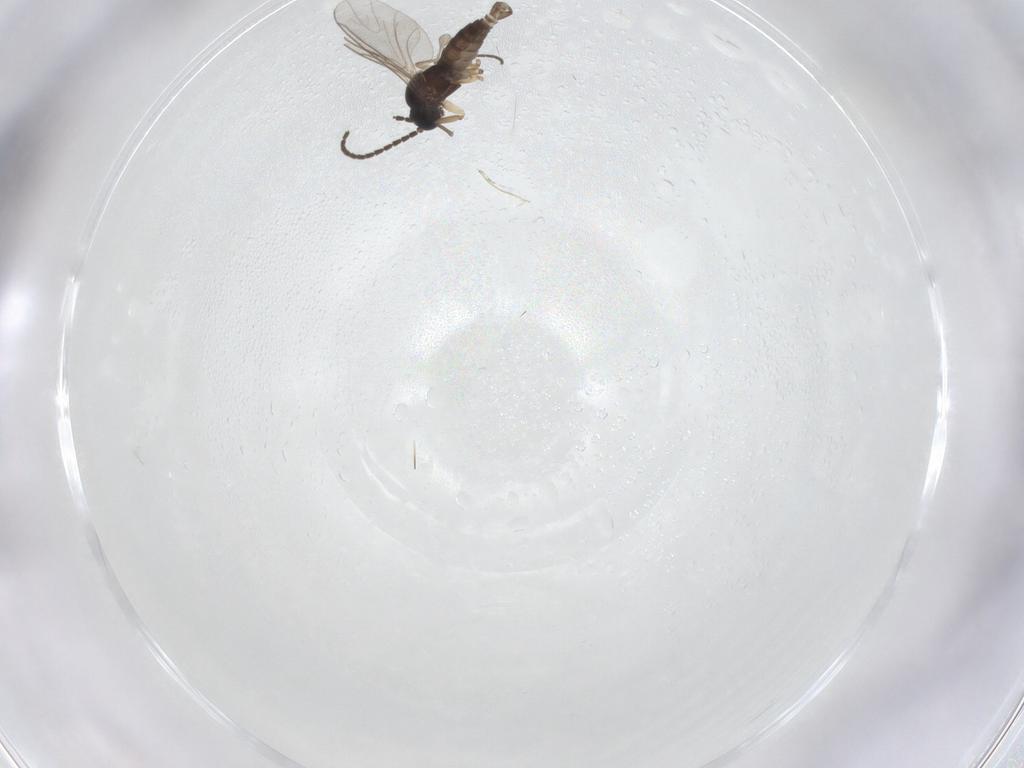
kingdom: Animalia
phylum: Arthropoda
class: Insecta
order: Diptera
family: Sciaridae
